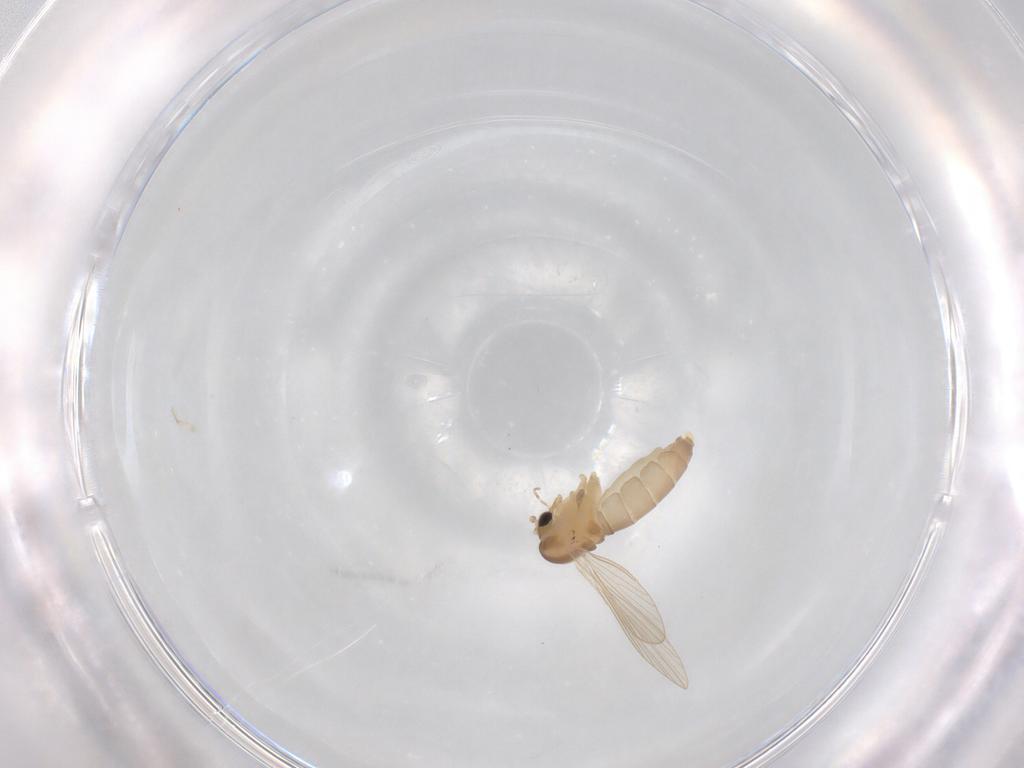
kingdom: Animalia
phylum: Arthropoda
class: Insecta
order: Diptera
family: Psychodidae
